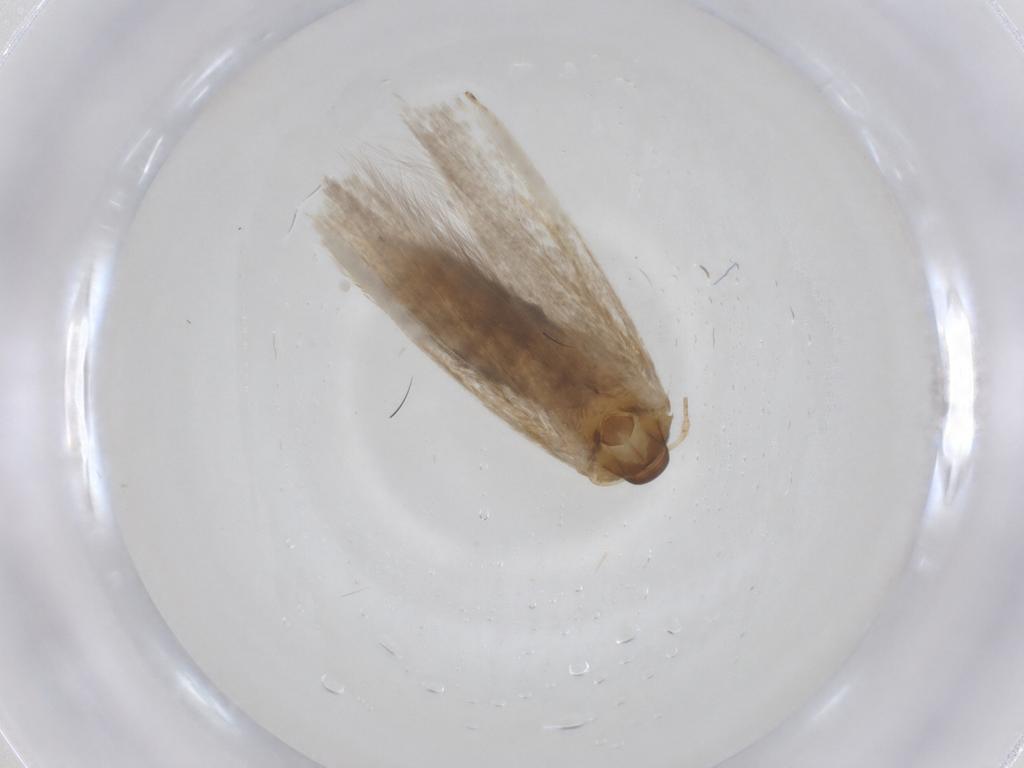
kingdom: Animalia
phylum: Arthropoda
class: Insecta
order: Lepidoptera
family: Blastobasidae
